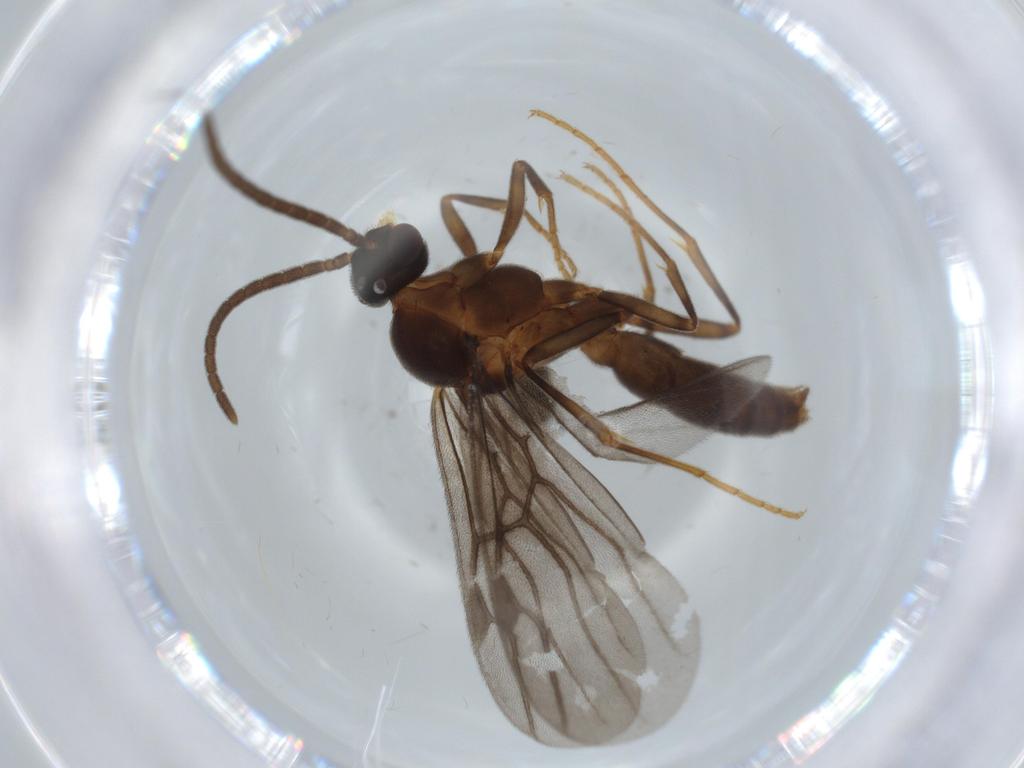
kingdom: Animalia
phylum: Arthropoda
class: Insecta
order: Hymenoptera
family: Formicidae
